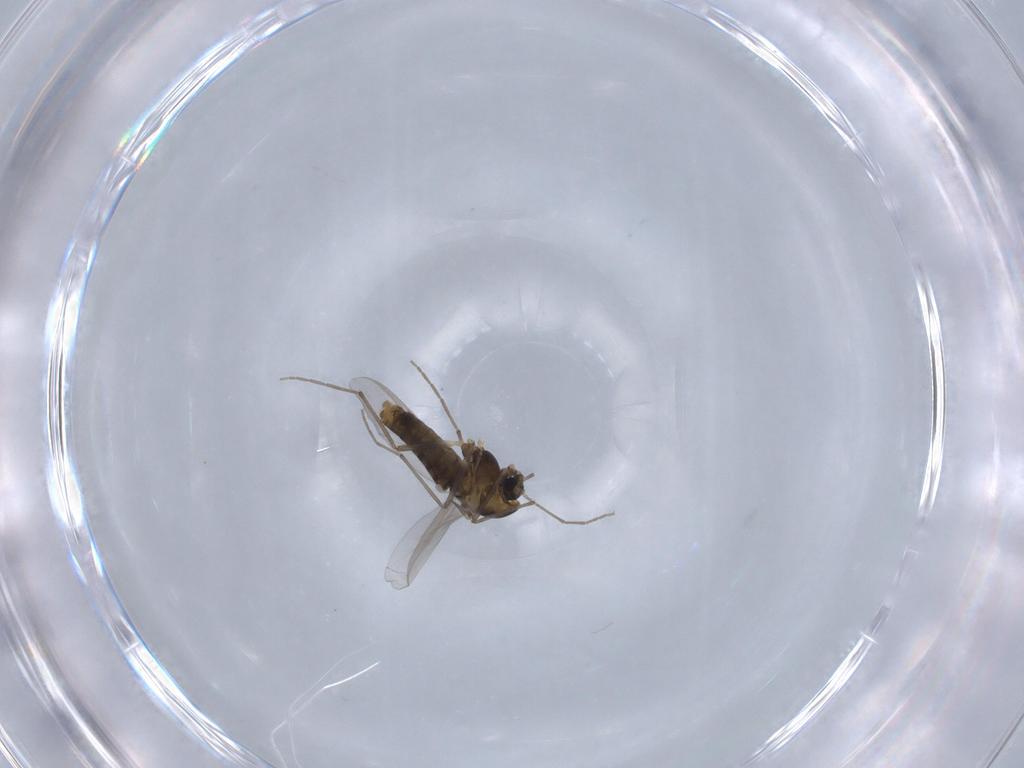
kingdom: Animalia
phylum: Arthropoda
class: Insecta
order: Diptera
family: Chironomidae
